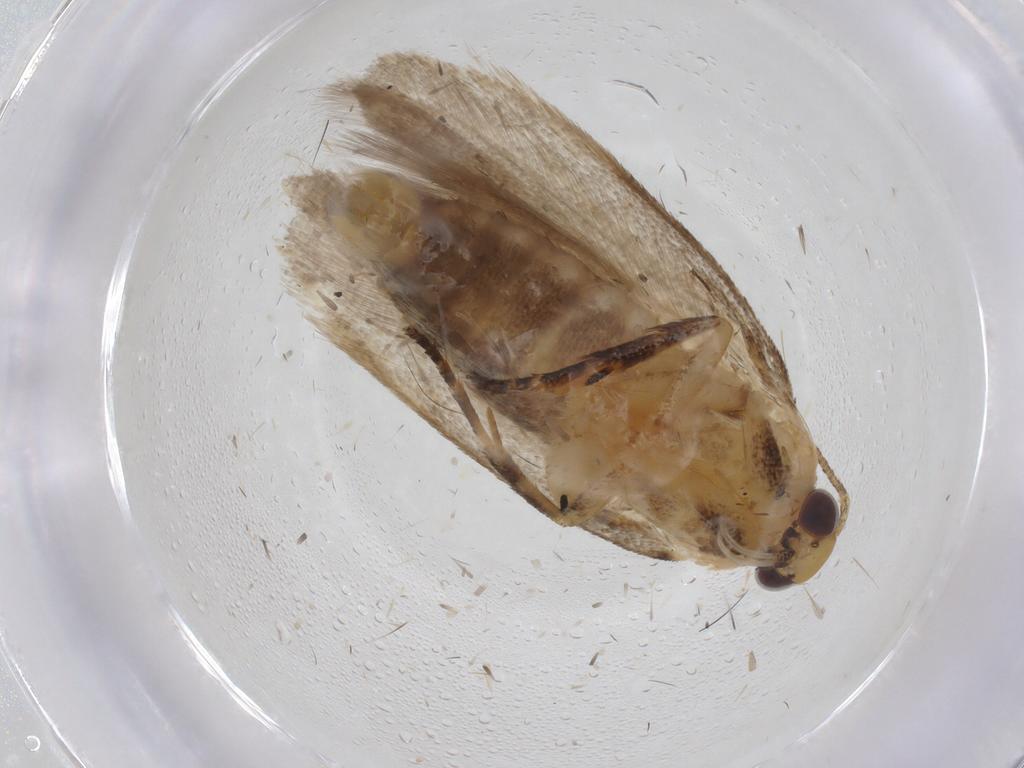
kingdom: Animalia
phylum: Arthropoda
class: Insecta
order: Lepidoptera
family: Gelechiidae
